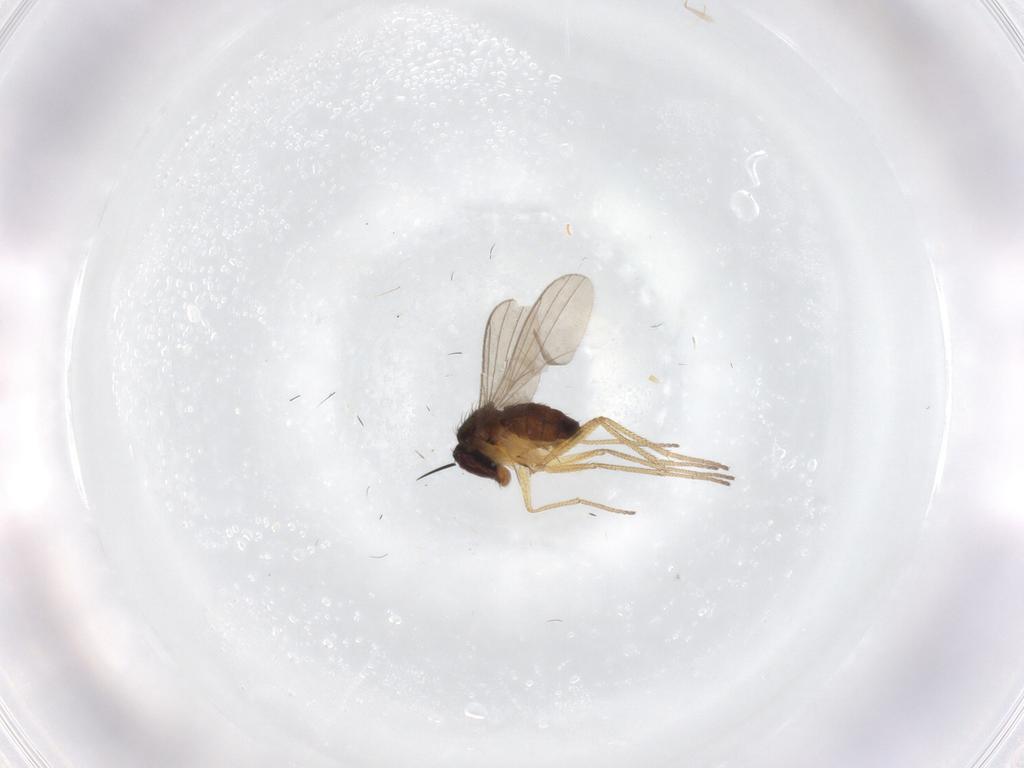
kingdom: Animalia
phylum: Arthropoda
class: Insecta
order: Diptera
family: Dolichopodidae
